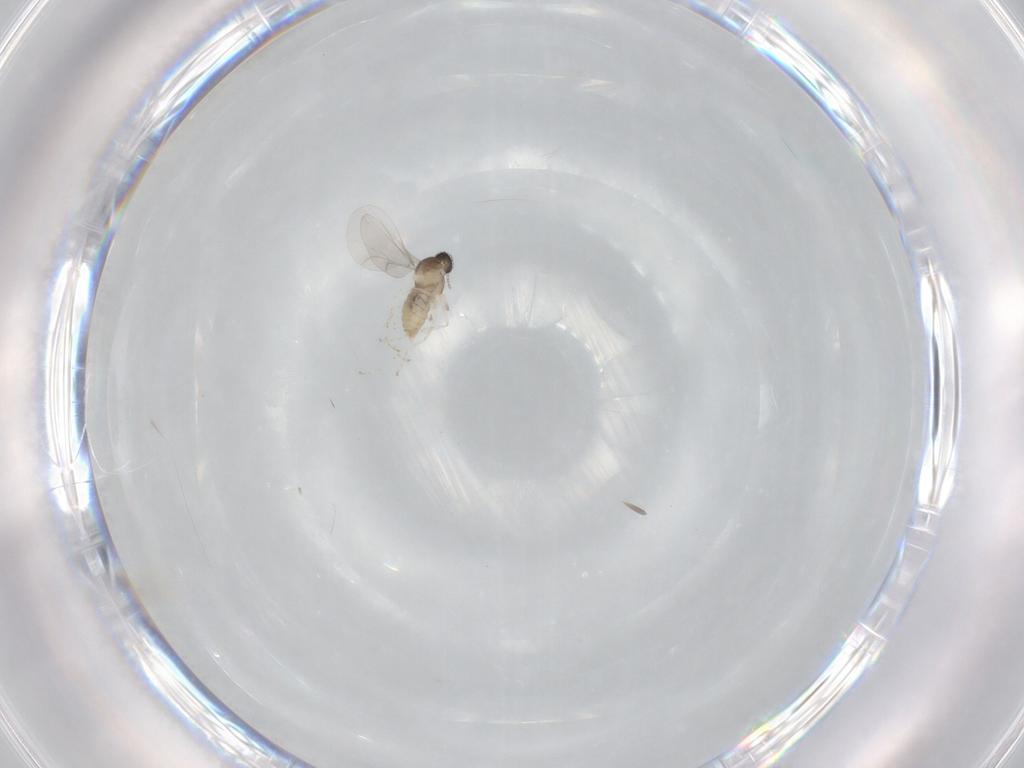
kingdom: Animalia
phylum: Arthropoda
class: Insecta
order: Diptera
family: Cecidomyiidae
